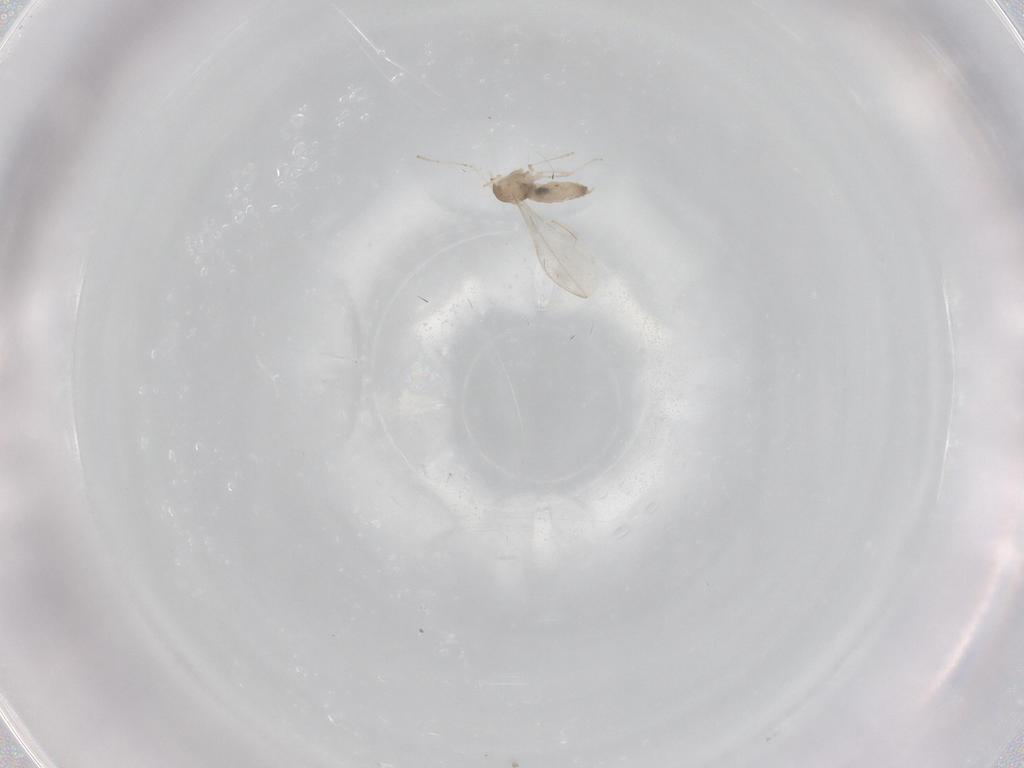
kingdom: Animalia
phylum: Arthropoda
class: Insecta
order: Diptera
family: Cecidomyiidae
